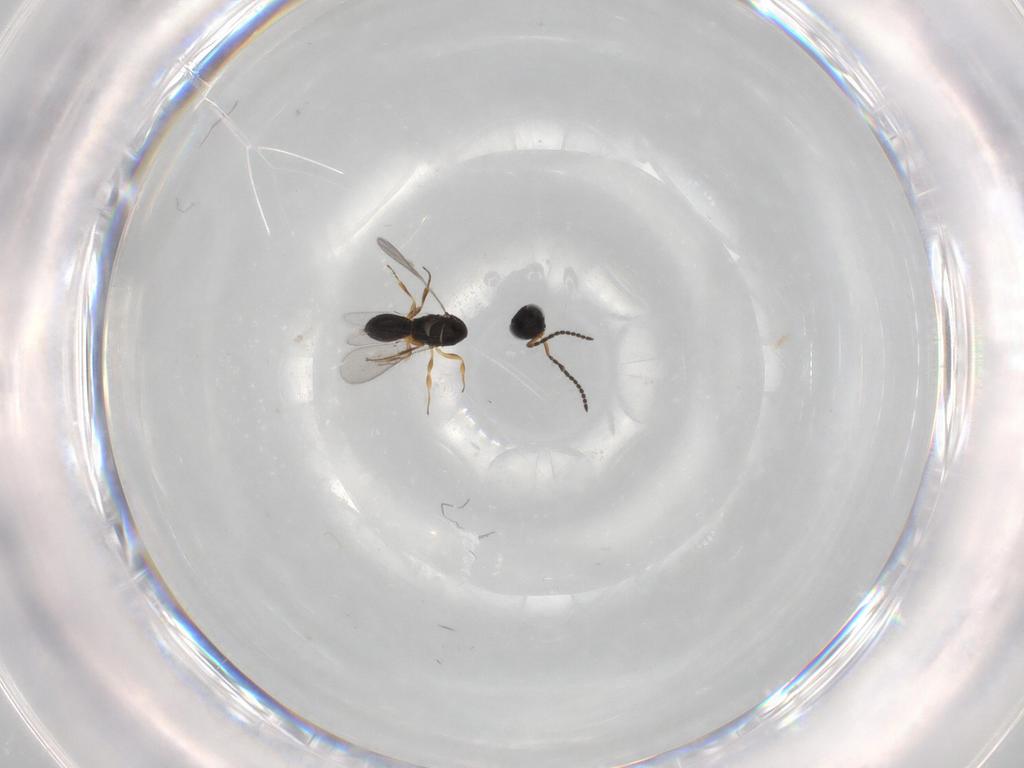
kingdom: Animalia
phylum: Arthropoda
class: Insecta
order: Hymenoptera
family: Scelionidae
